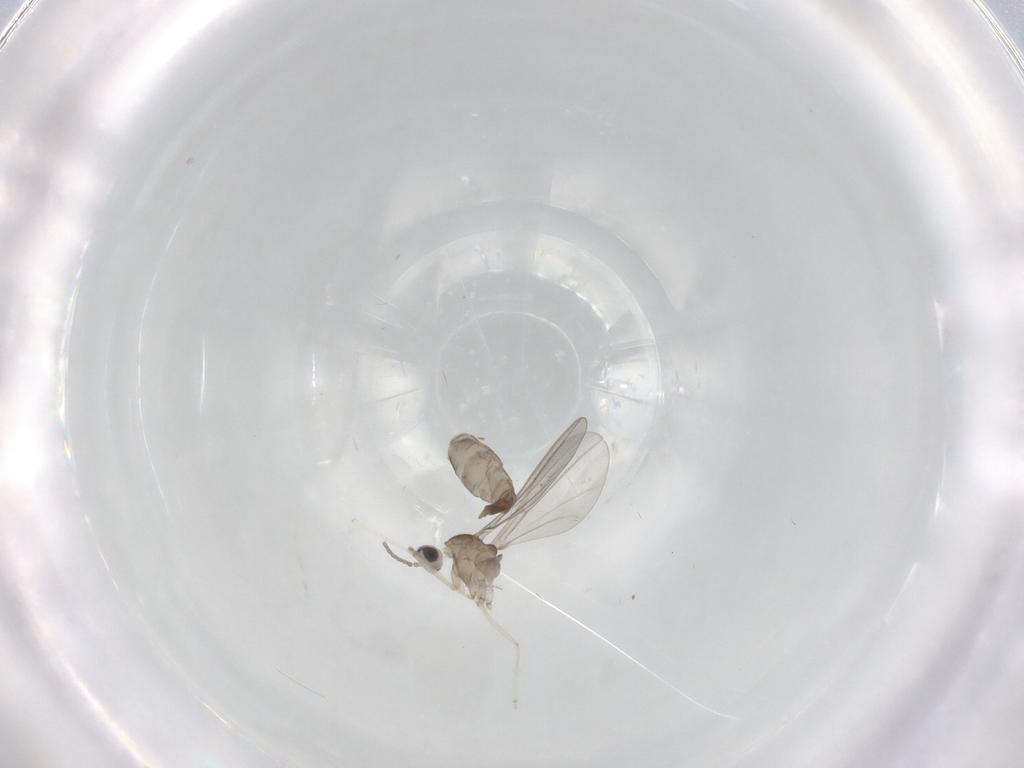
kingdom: Animalia
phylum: Arthropoda
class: Insecta
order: Diptera
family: Cecidomyiidae
